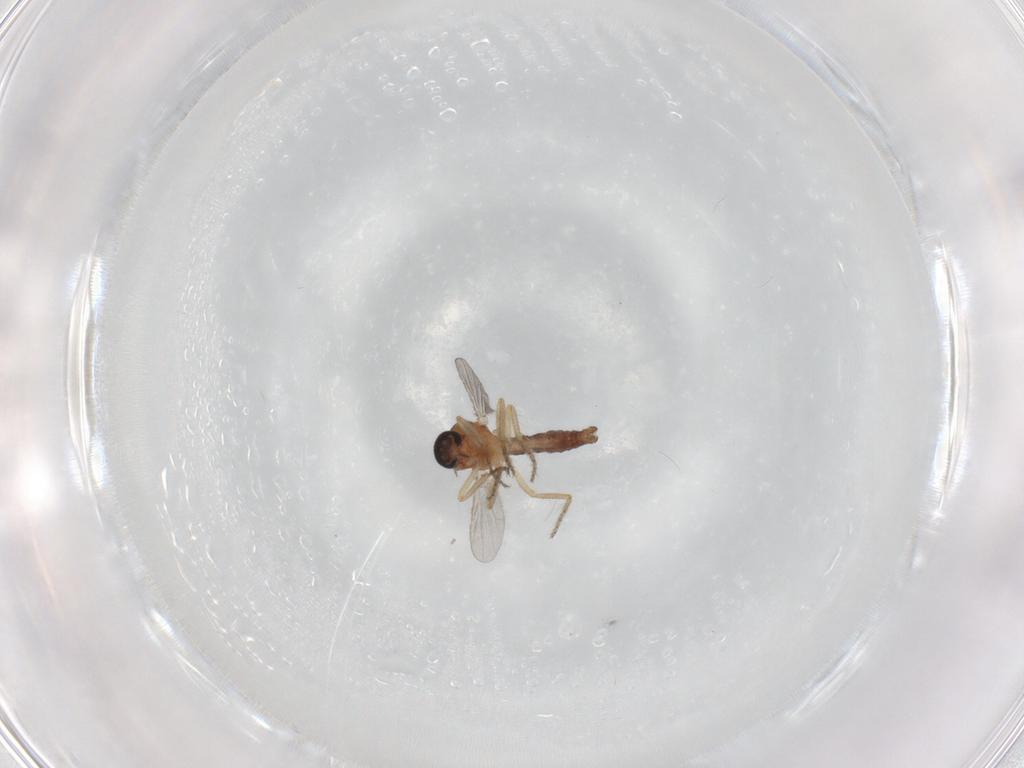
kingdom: Animalia
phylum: Arthropoda
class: Insecta
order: Diptera
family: Ceratopogonidae
